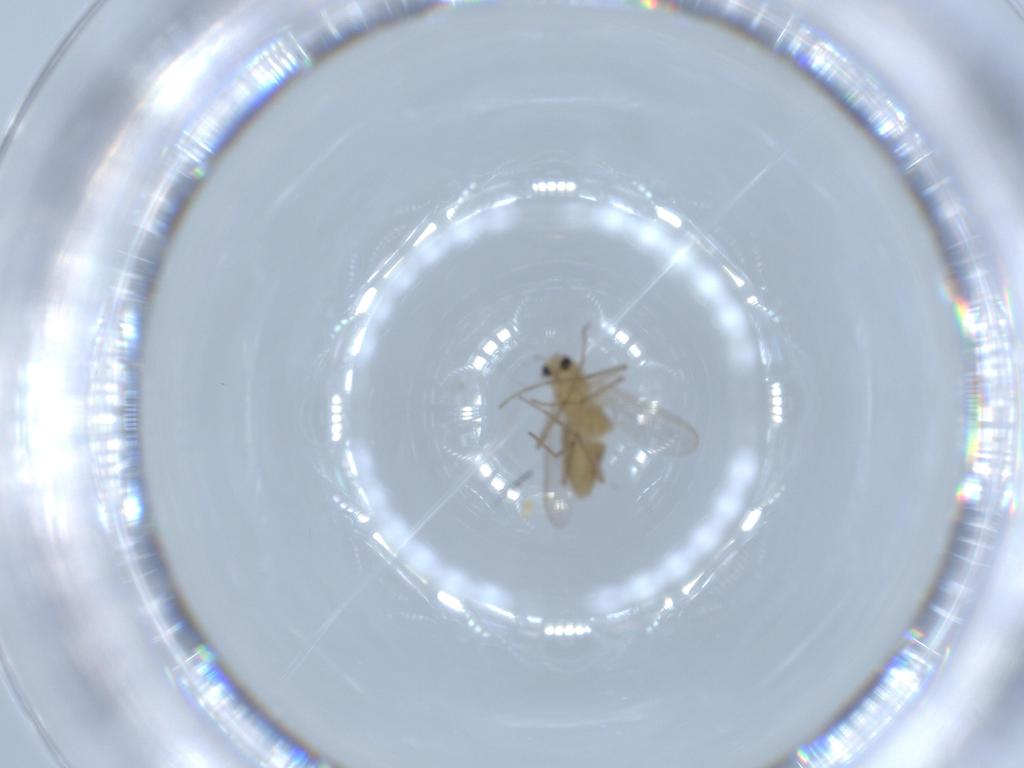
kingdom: Animalia
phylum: Arthropoda
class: Insecta
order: Diptera
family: Chironomidae
